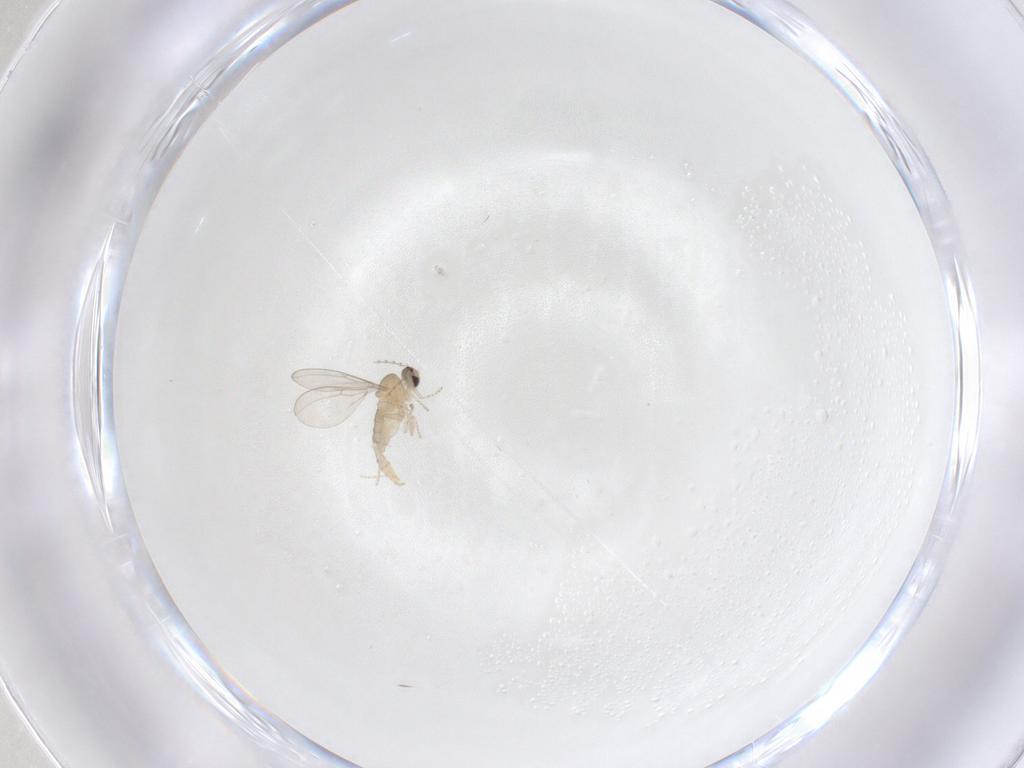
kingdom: Animalia
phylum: Arthropoda
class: Insecta
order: Diptera
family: Cecidomyiidae
